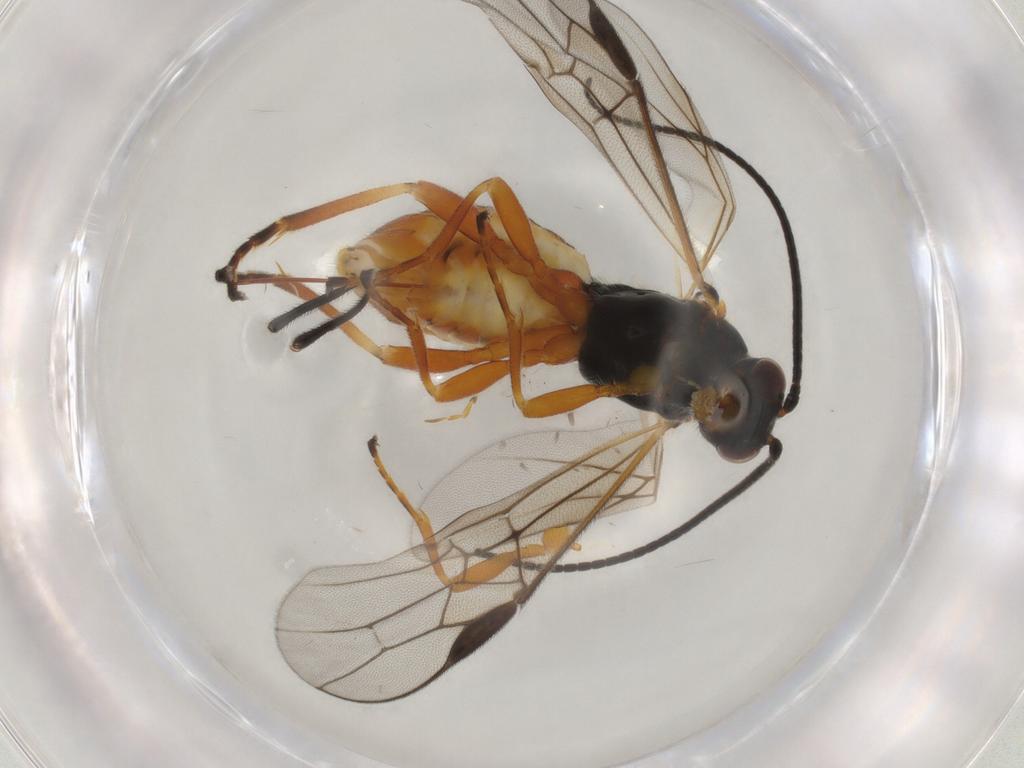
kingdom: Animalia
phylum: Arthropoda
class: Insecta
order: Hymenoptera
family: Braconidae
